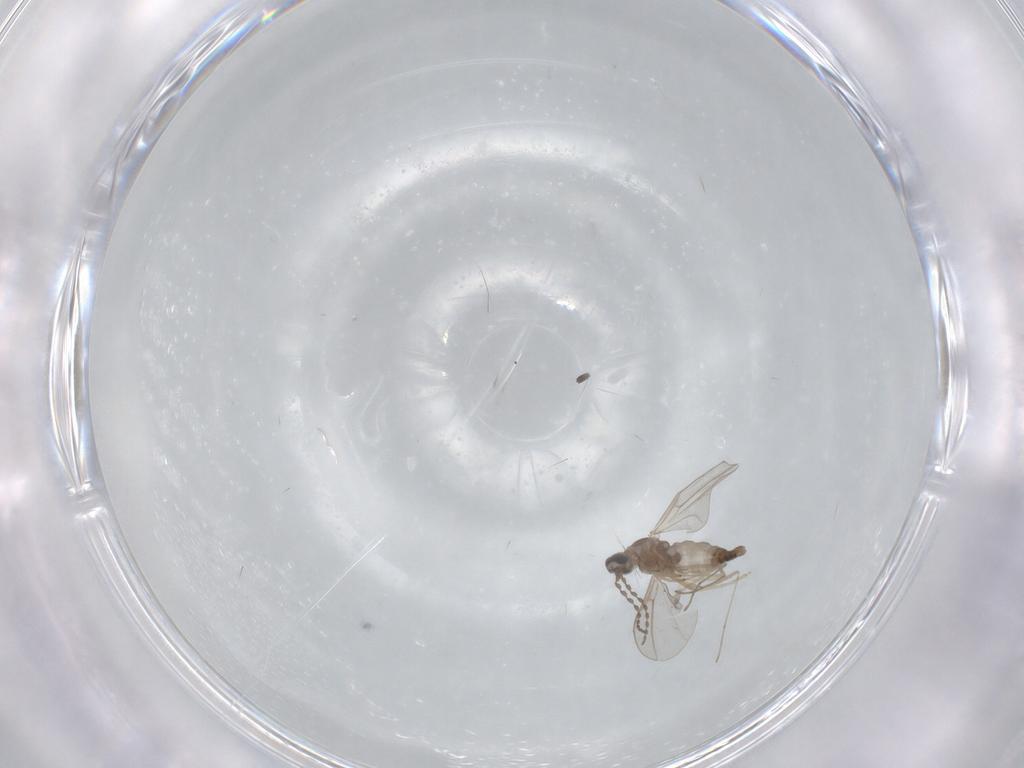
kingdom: Animalia
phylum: Arthropoda
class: Insecta
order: Diptera
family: Cecidomyiidae
